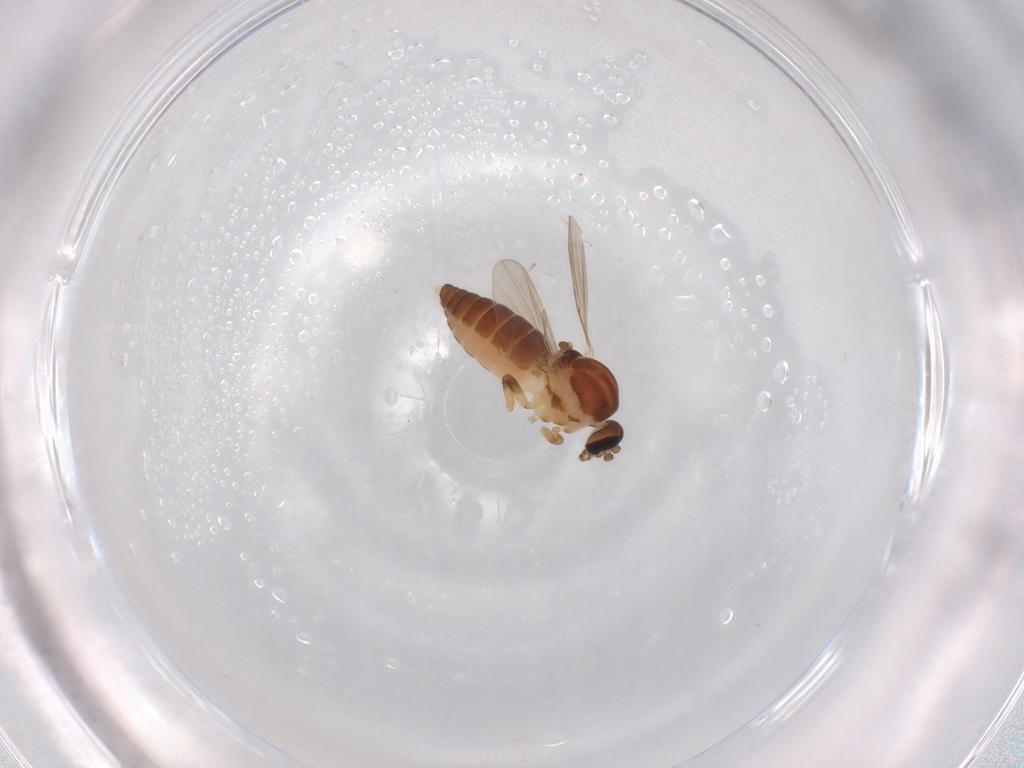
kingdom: Animalia
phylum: Arthropoda
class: Insecta
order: Diptera
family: Ceratopogonidae
